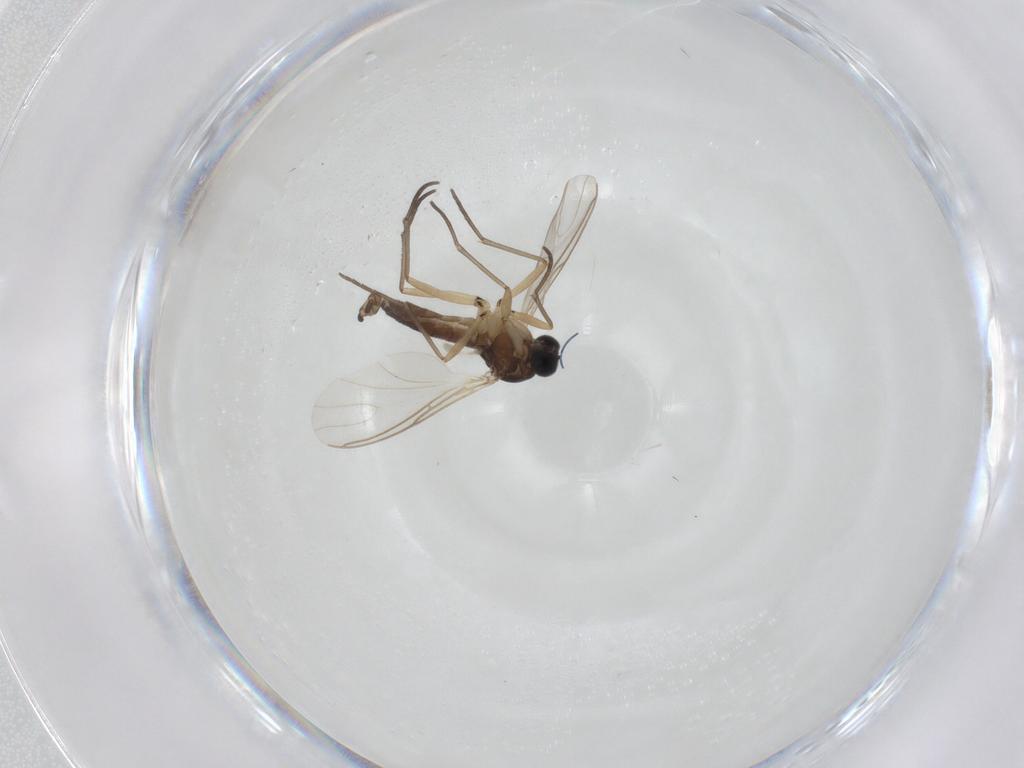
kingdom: Animalia
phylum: Arthropoda
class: Insecta
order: Diptera
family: Sciaridae
